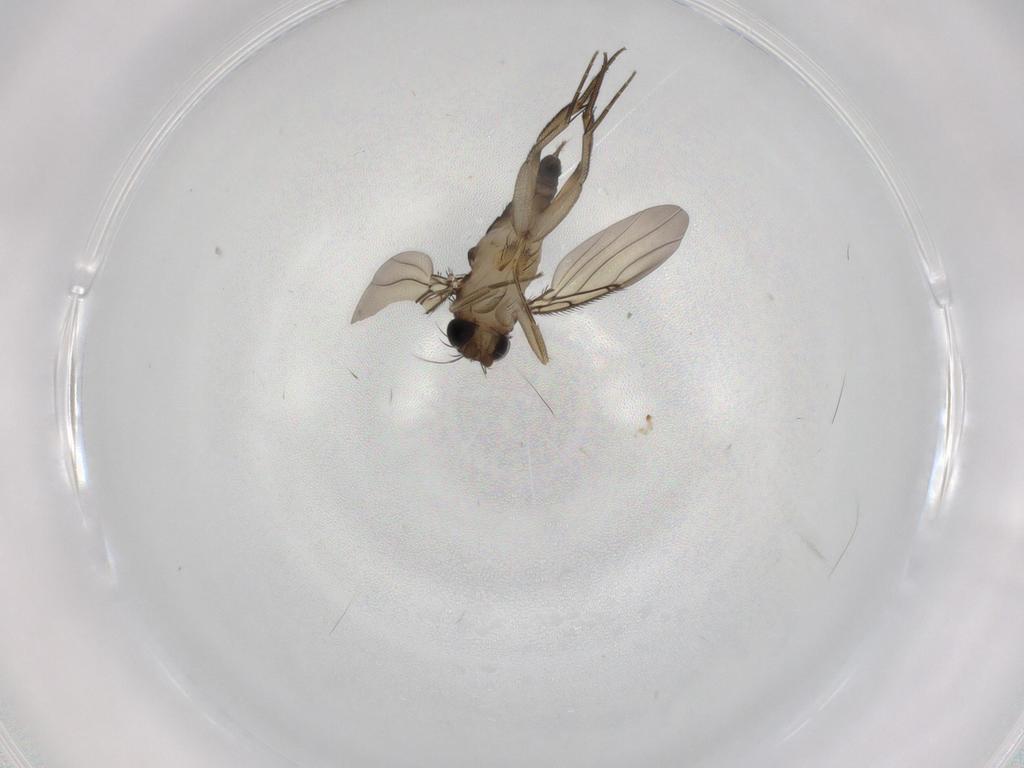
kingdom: Animalia
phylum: Arthropoda
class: Insecta
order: Diptera
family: Phoridae
